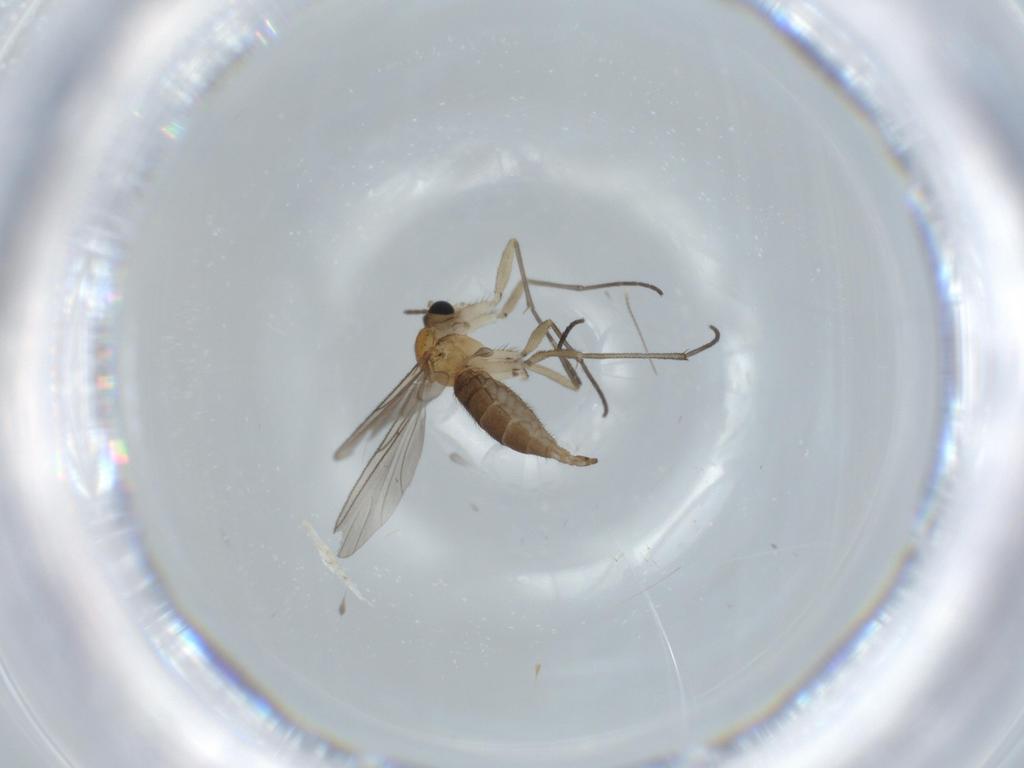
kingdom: Animalia
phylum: Arthropoda
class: Insecta
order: Diptera
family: Sciaridae
